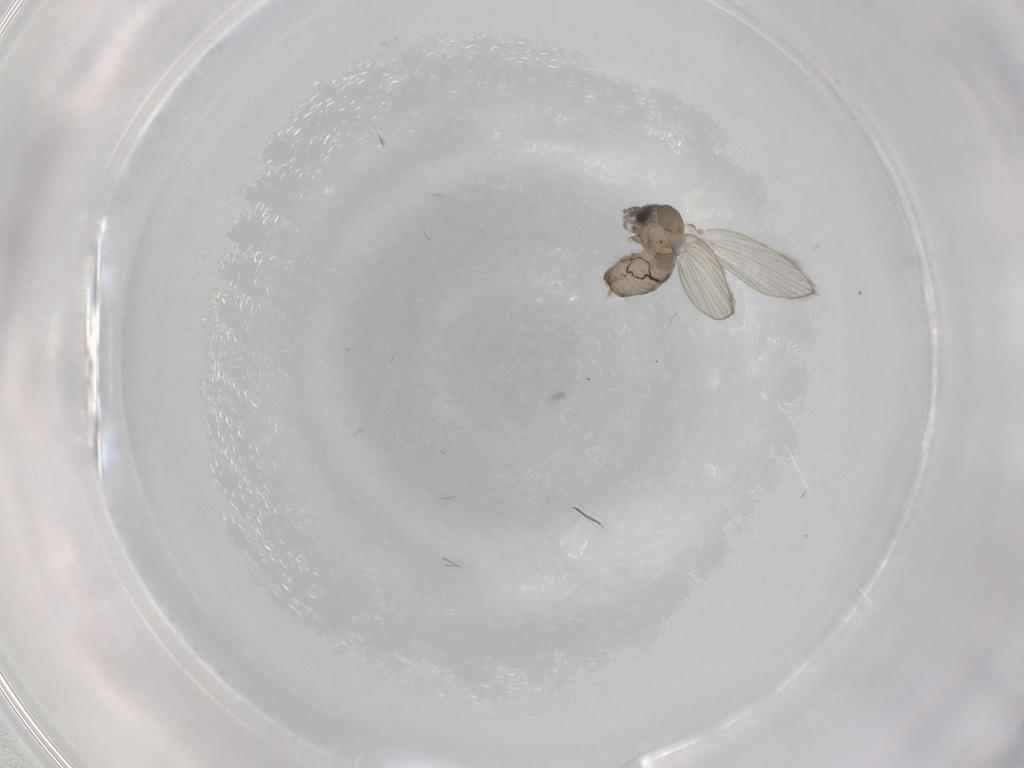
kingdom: Animalia
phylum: Arthropoda
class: Insecta
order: Diptera
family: Psychodidae
